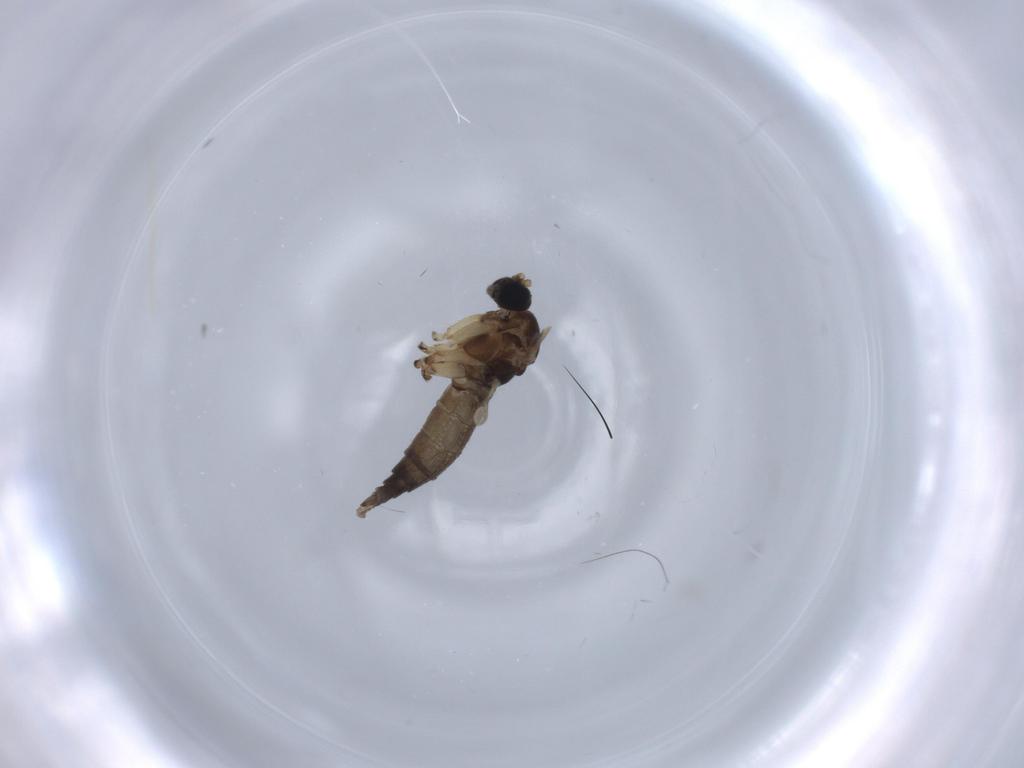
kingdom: Animalia
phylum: Arthropoda
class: Insecta
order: Diptera
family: Sciaridae
